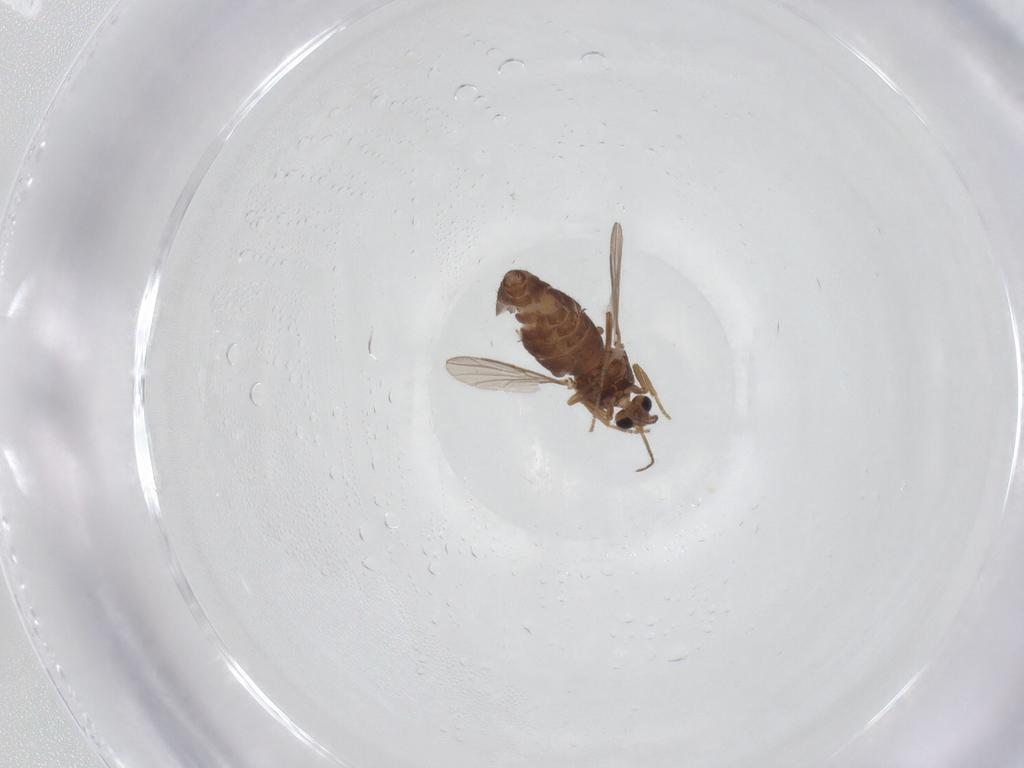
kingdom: Animalia
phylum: Arthropoda
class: Insecta
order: Diptera
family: Ceratopogonidae
